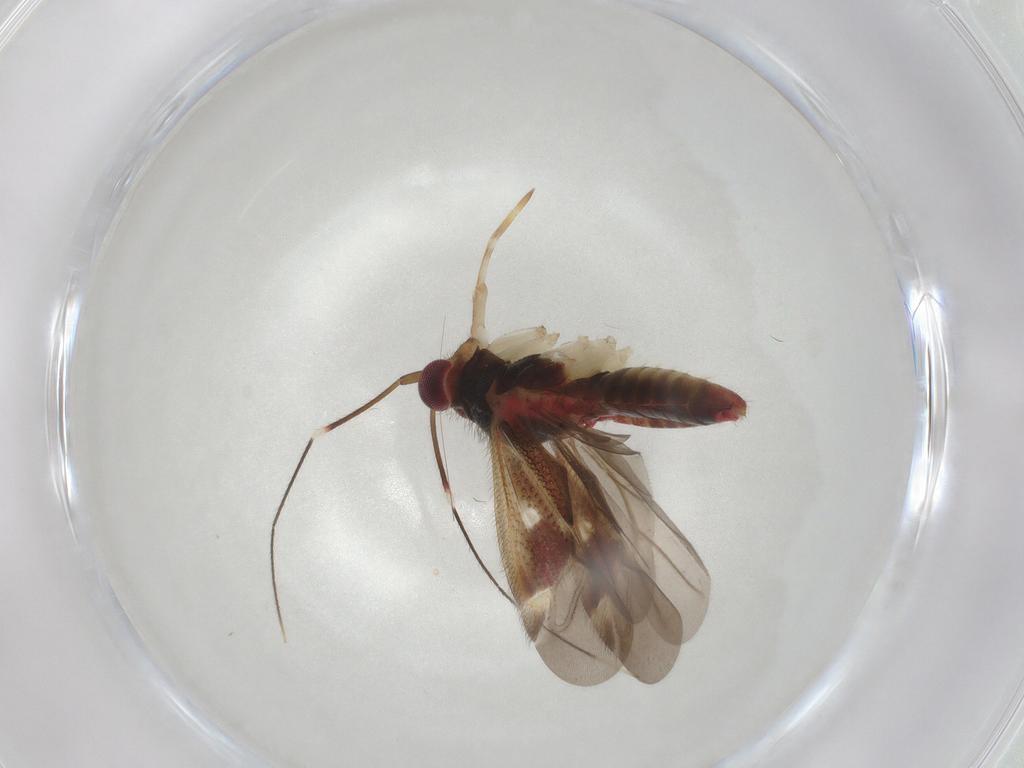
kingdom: Animalia
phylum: Arthropoda
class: Insecta
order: Hemiptera
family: Miridae
